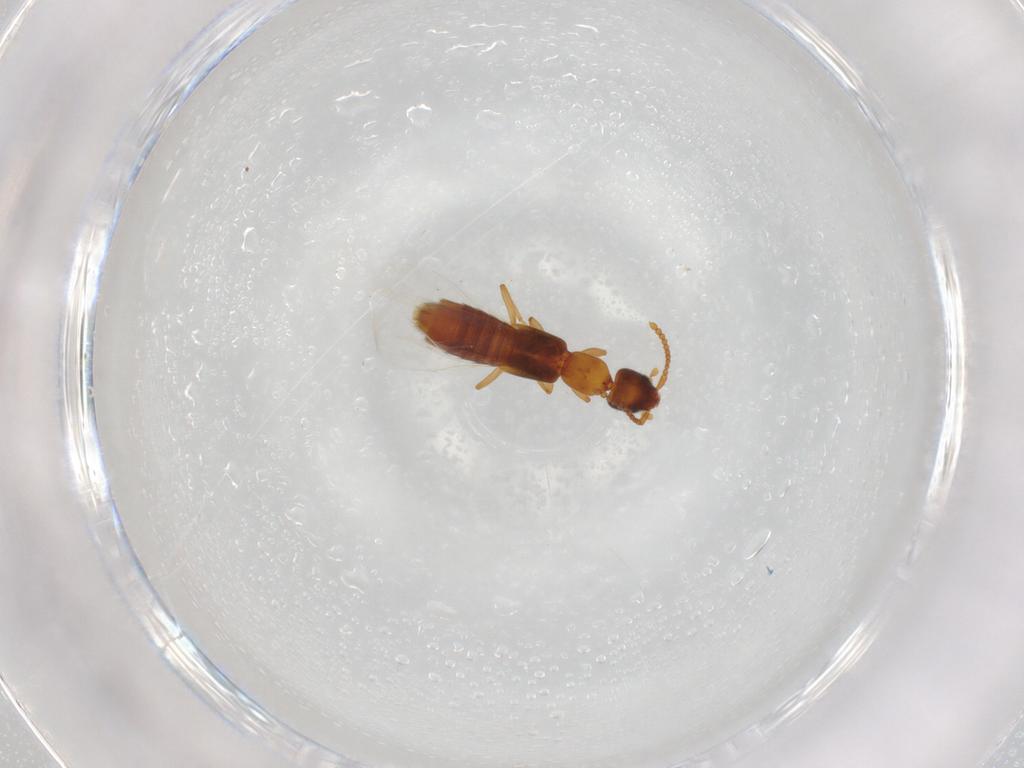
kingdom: Animalia
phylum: Arthropoda
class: Insecta
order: Coleoptera
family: Staphylinidae
